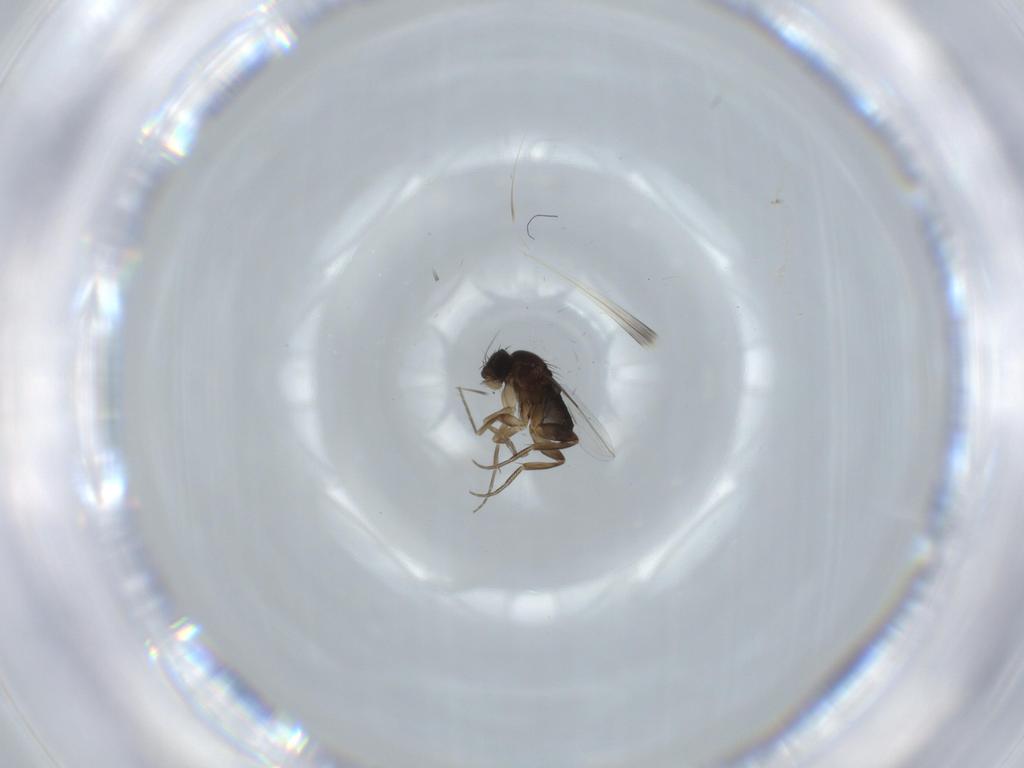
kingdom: Animalia
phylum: Arthropoda
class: Insecta
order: Diptera
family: Phoridae
